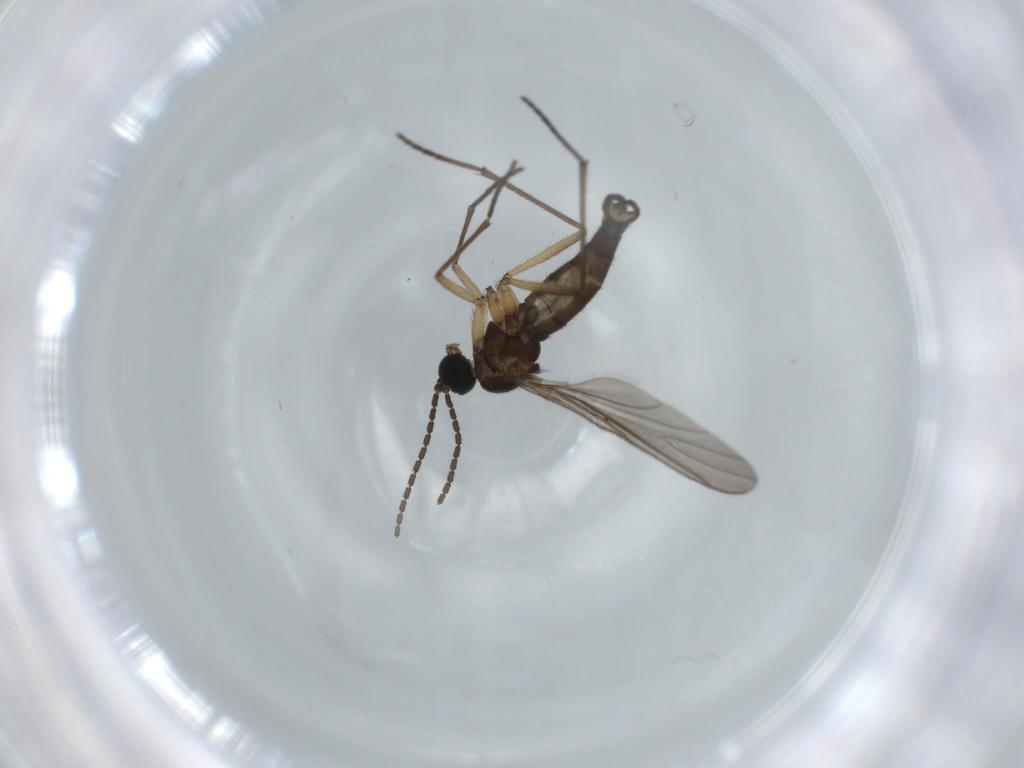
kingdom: Animalia
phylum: Arthropoda
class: Insecta
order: Diptera
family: Sciaridae
